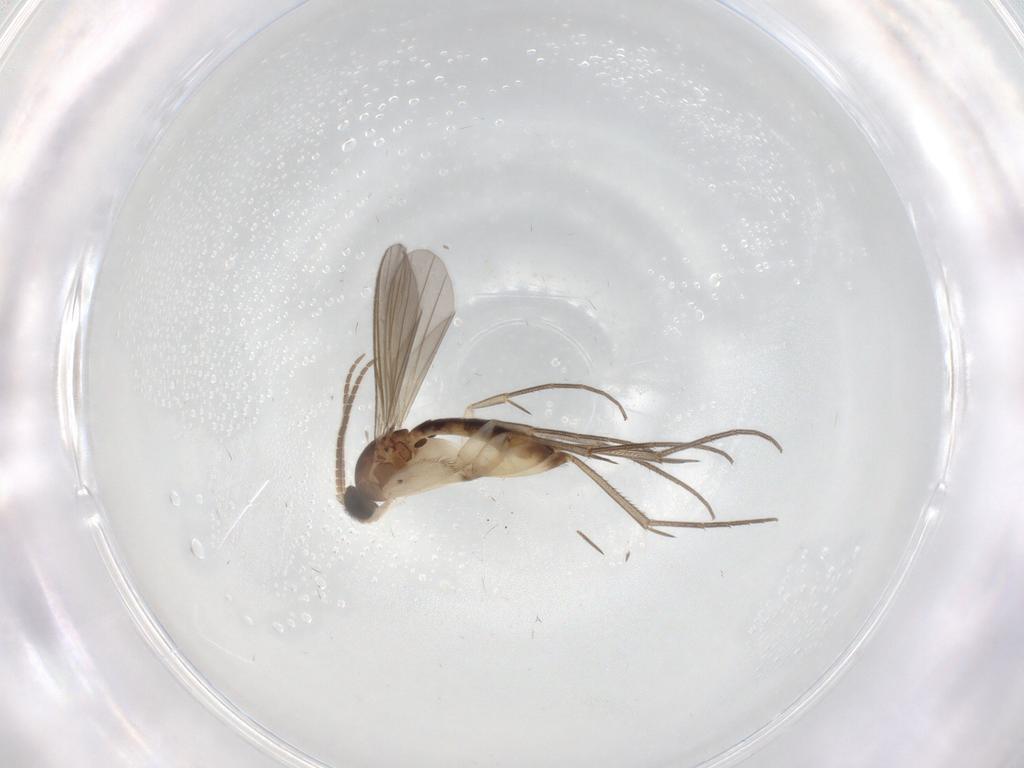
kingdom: Animalia
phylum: Arthropoda
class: Insecta
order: Diptera
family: Mycetophilidae
